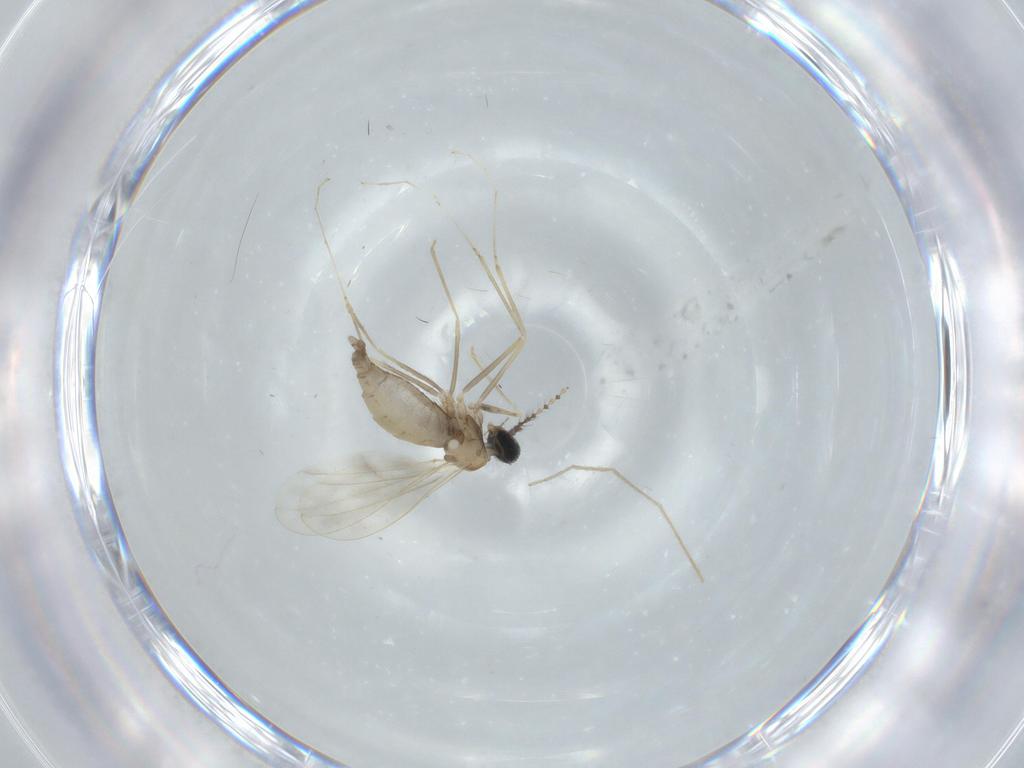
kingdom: Animalia
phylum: Arthropoda
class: Insecta
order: Diptera
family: Cecidomyiidae
